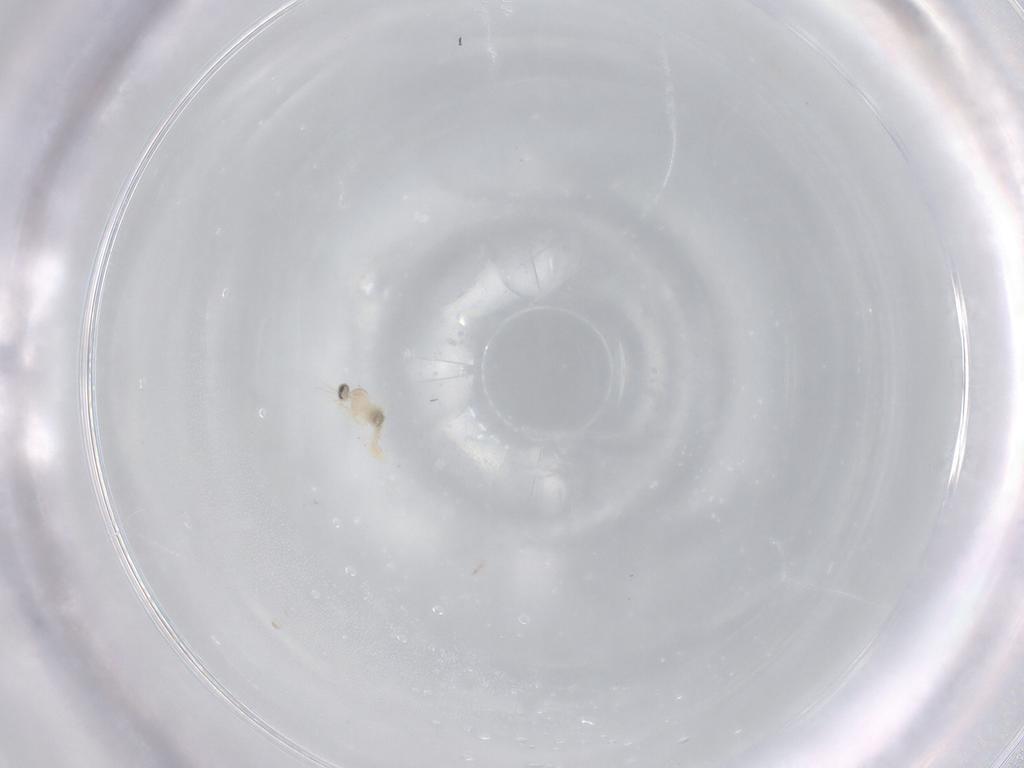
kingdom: Animalia
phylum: Arthropoda
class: Insecta
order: Diptera
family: Cecidomyiidae
